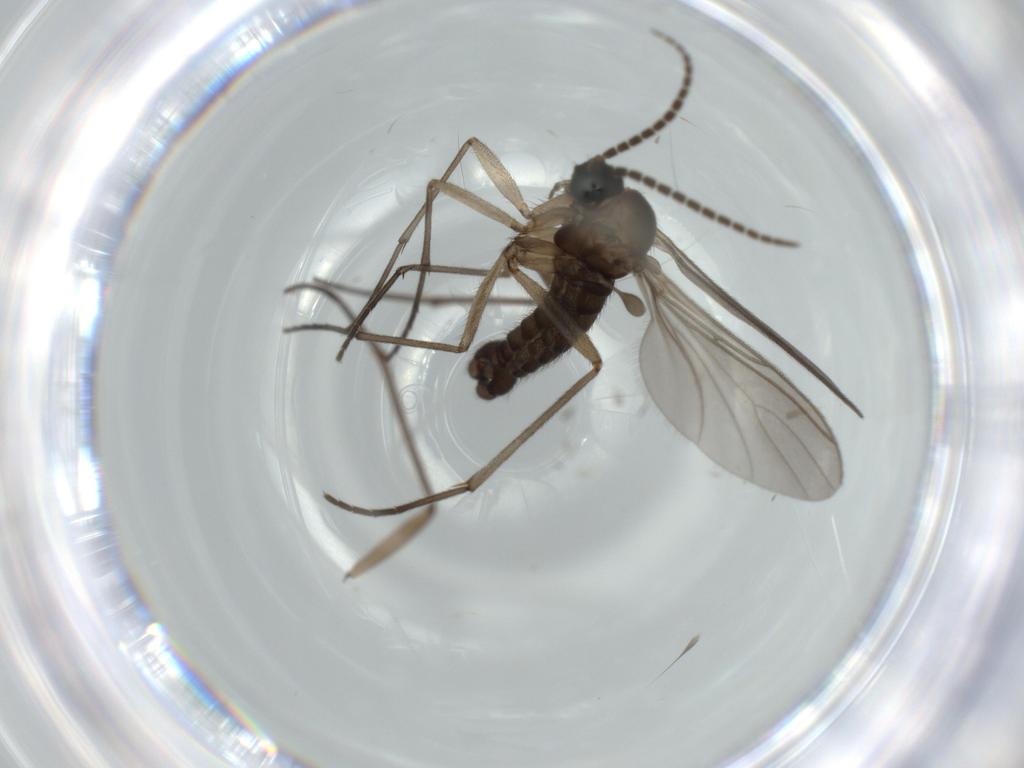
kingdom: Animalia
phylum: Arthropoda
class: Insecta
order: Diptera
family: Sciaridae
